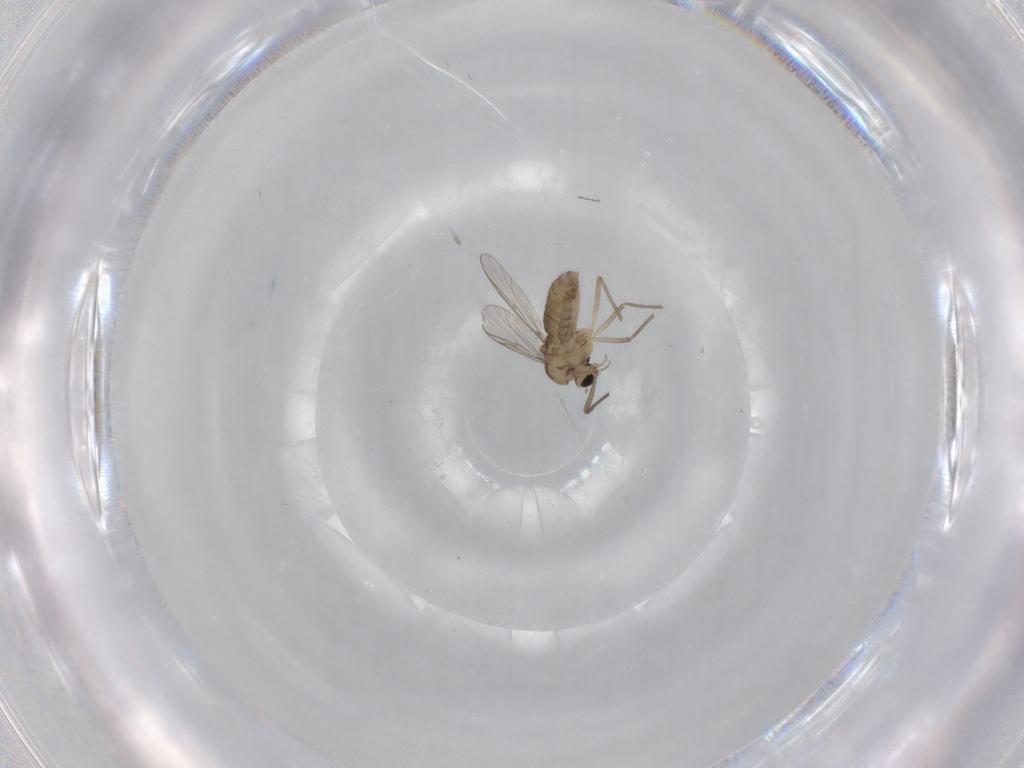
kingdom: Animalia
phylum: Arthropoda
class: Insecta
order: Diptera
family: Chironomidae
